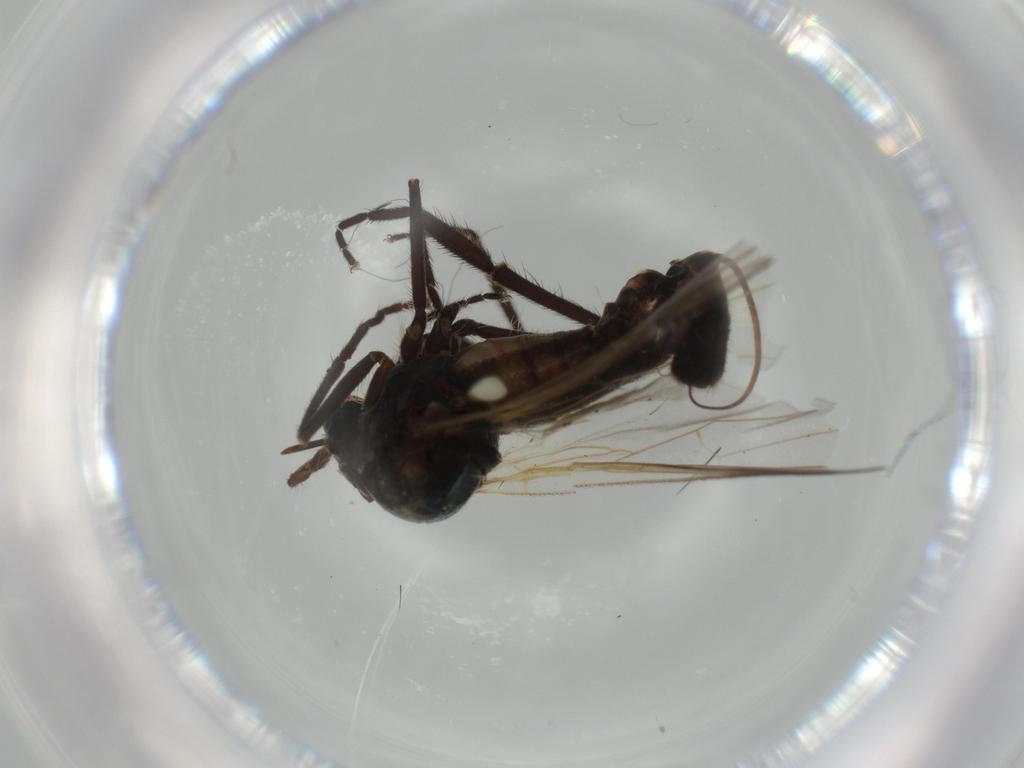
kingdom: Animalia
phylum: Arthropoda
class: Insecta
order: Diptera
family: Empididae
